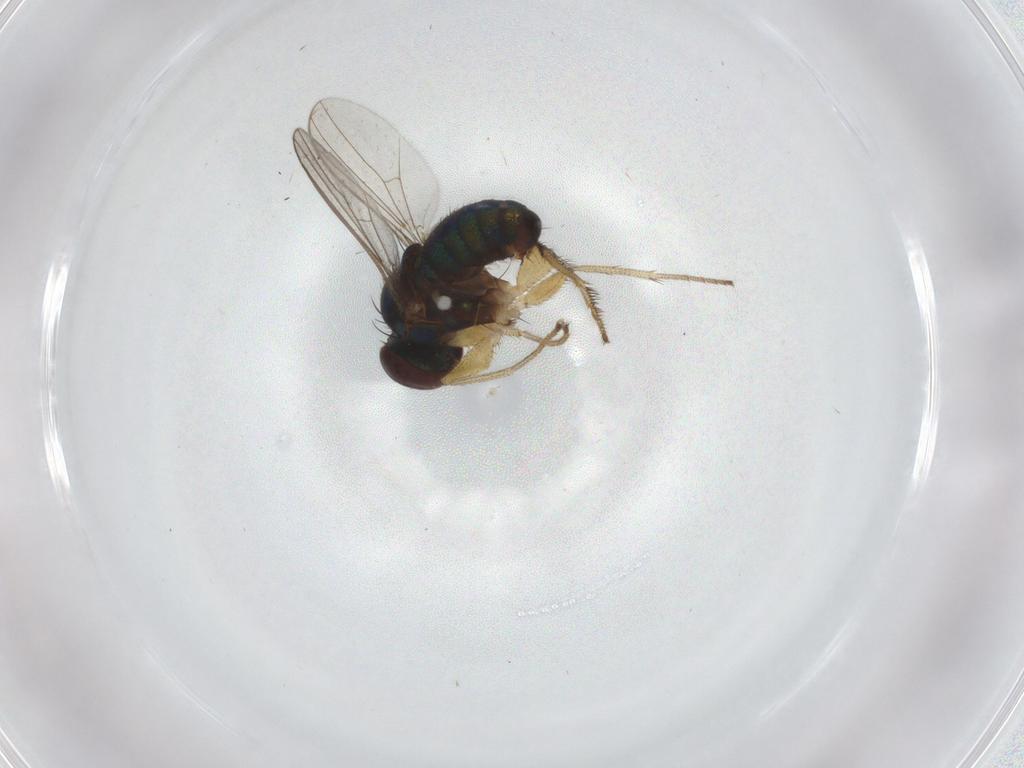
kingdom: Animalia
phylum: Arthropoda
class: Insecta
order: Diptera
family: Dolichopodidae
